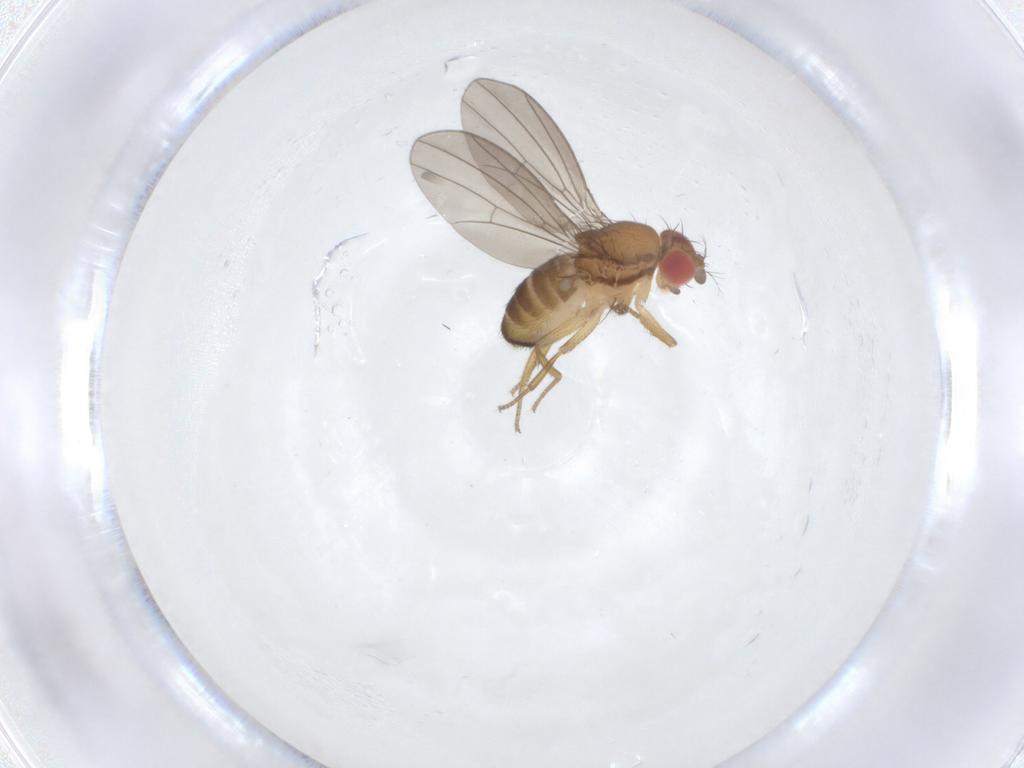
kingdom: Animalia
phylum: Arthropoda
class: Insecta
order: Diptera
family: Drosophilidae
